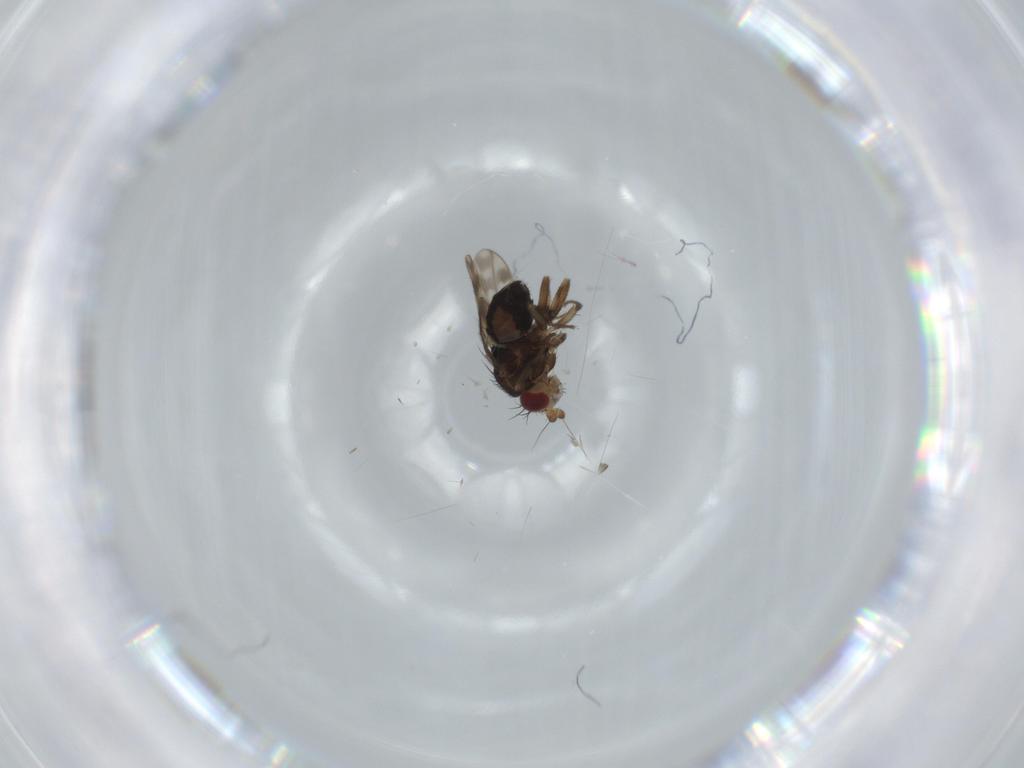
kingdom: Animalia
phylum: Arthropoda
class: Insecta
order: Diptera
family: Sphaeroceridae
